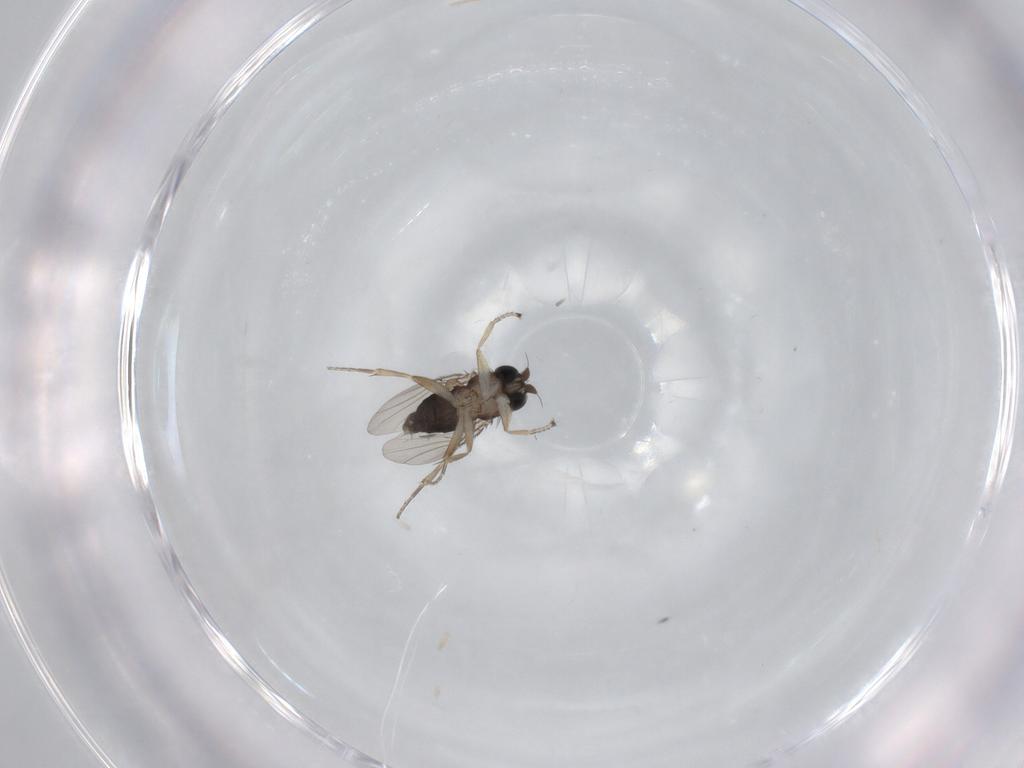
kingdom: Animalia
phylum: Arthropoda
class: Insecta
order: Diptera
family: Phoridae
